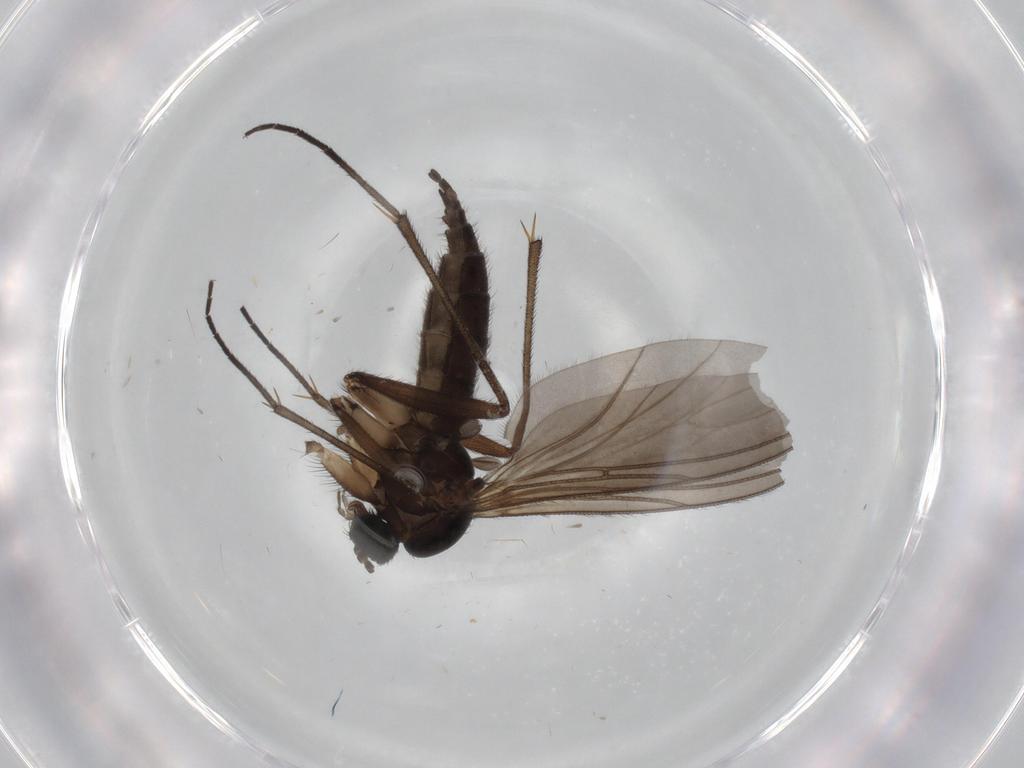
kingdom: Animalia
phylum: Arthropoda
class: Insecta
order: Diptera
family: Sciaridae
